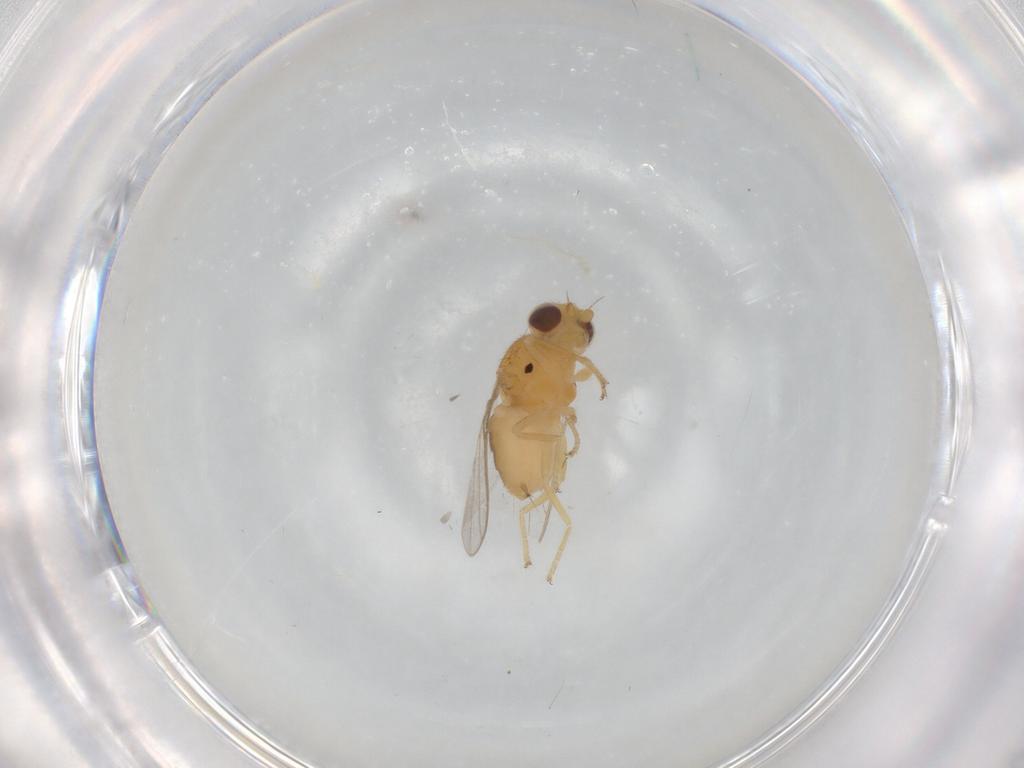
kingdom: Animalia
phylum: Arthropoda
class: Insecta
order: Diptera
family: Chloropidae
